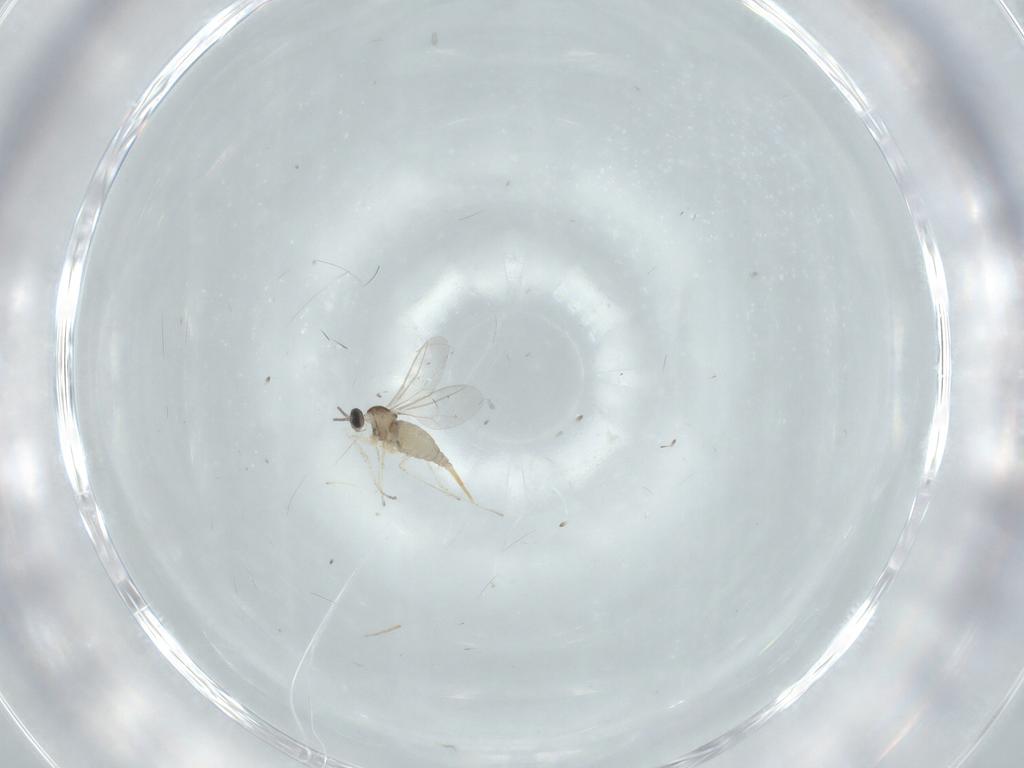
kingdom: Animalia
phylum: Arthropoda
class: Insecta
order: Diptera
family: Cecidomyiidae
